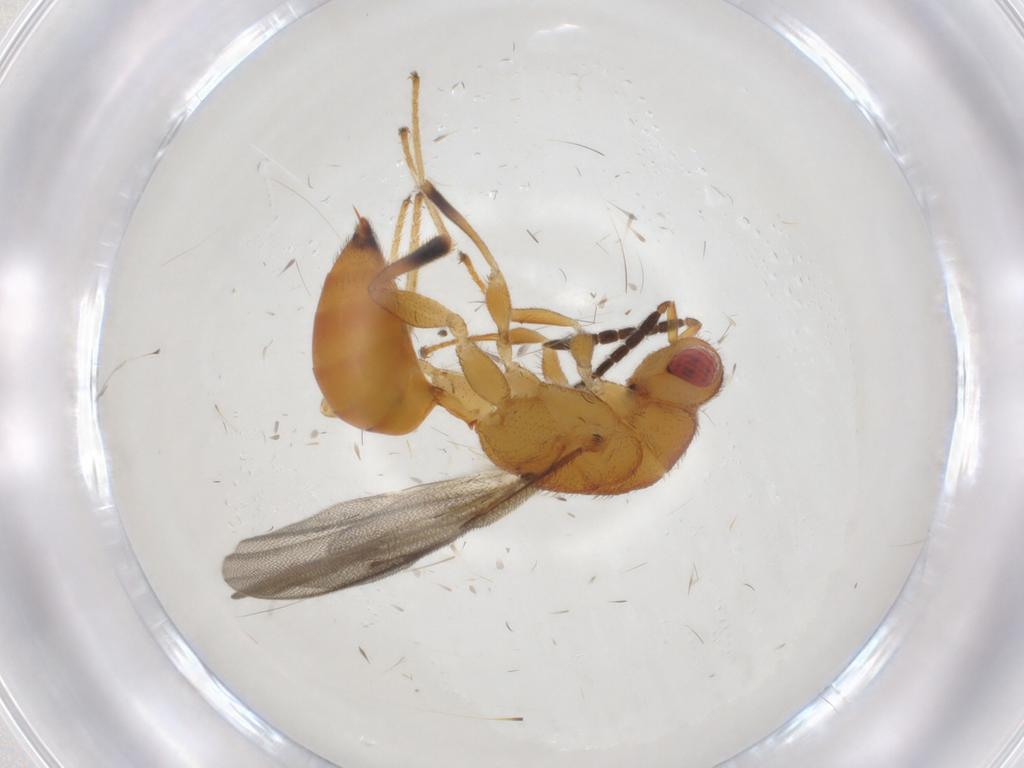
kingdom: Animalia
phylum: Arthropoda
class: Insecta
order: Hymenoptera
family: Eurytomidae
